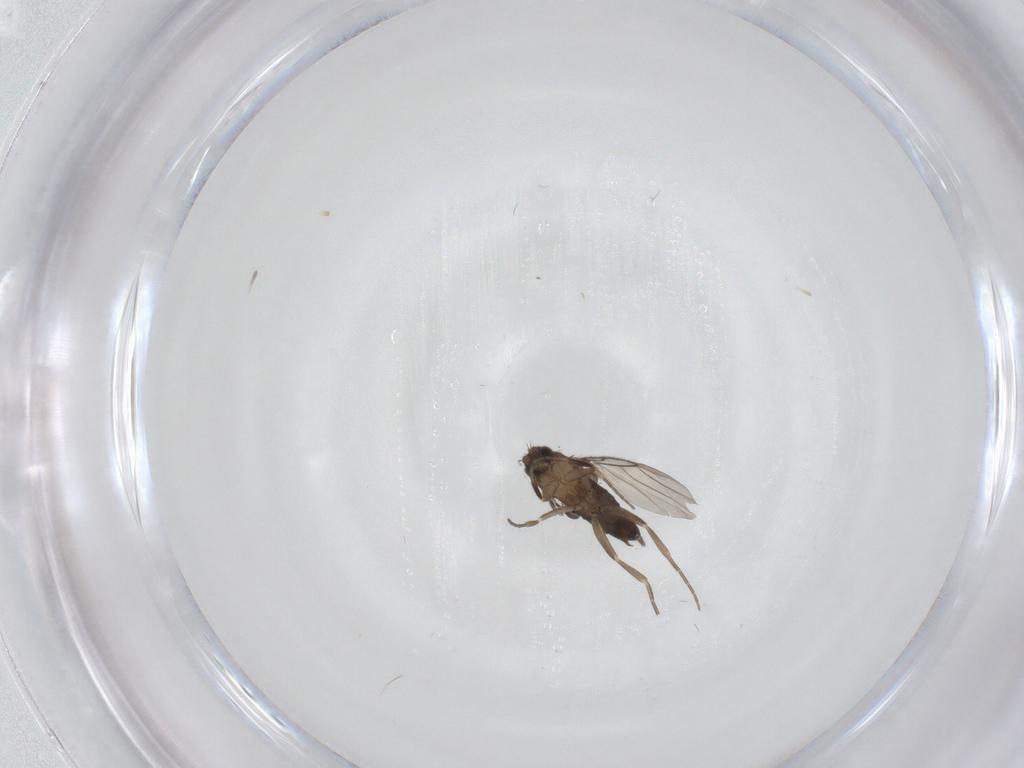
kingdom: Animalia
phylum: Arthropoda
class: Insecta
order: Diptera
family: Phoridae
